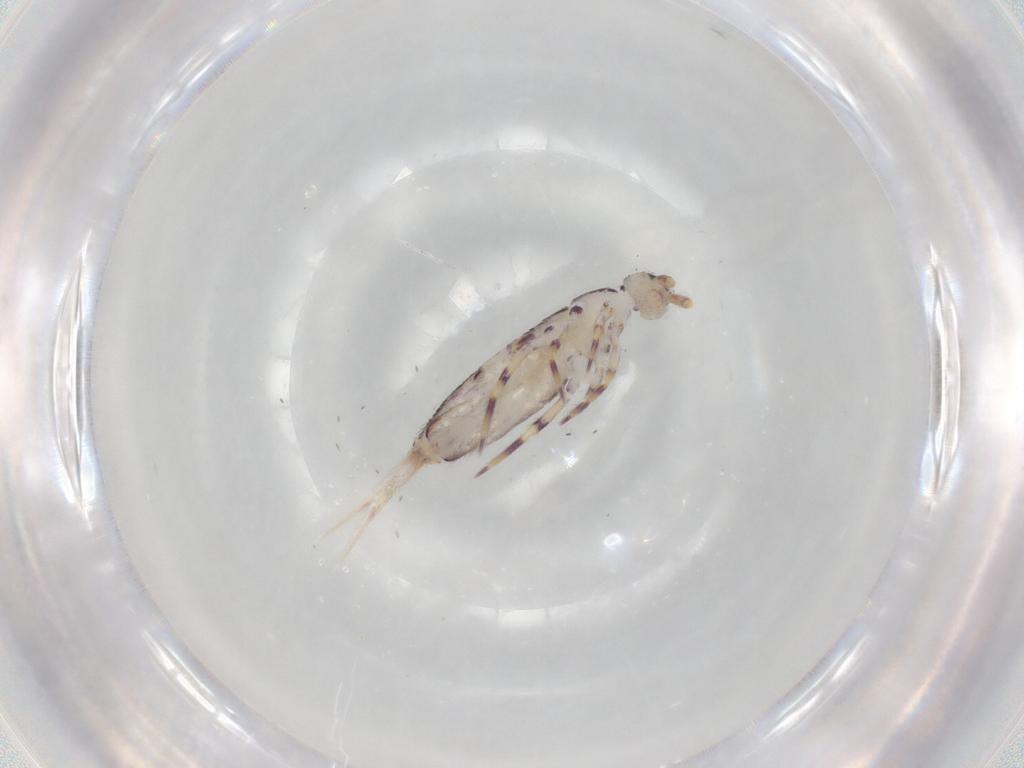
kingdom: Animalia
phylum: Arthropoda
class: Collembola
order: Entomobryomorpha
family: Entomobryidae
